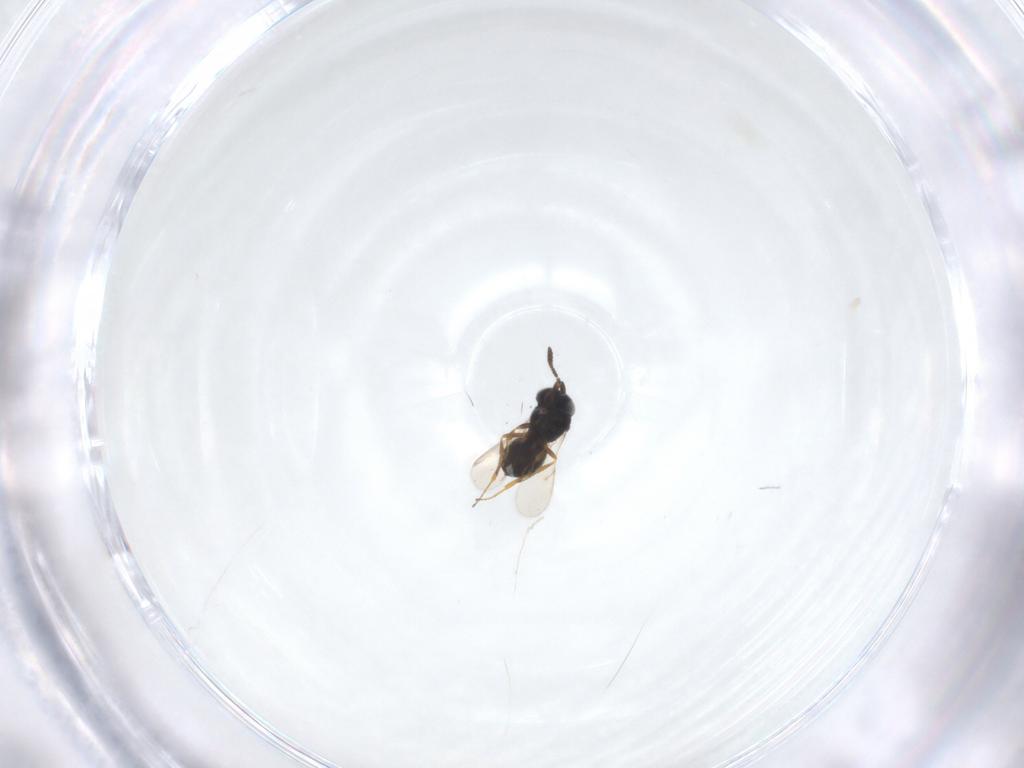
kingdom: Animalia
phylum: Arthropoda
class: Insecta
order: Hymenoptera
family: Scelionidae
